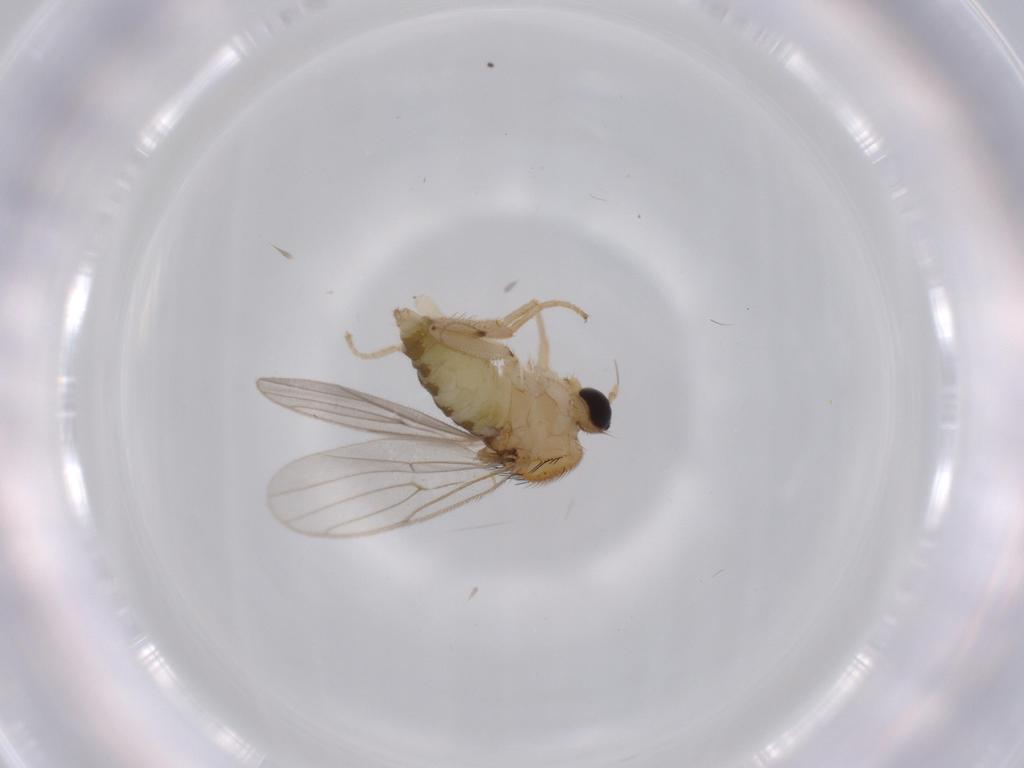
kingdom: Animalia
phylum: Arthropoda
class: Insecta
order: Diptera
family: Hybotidae
